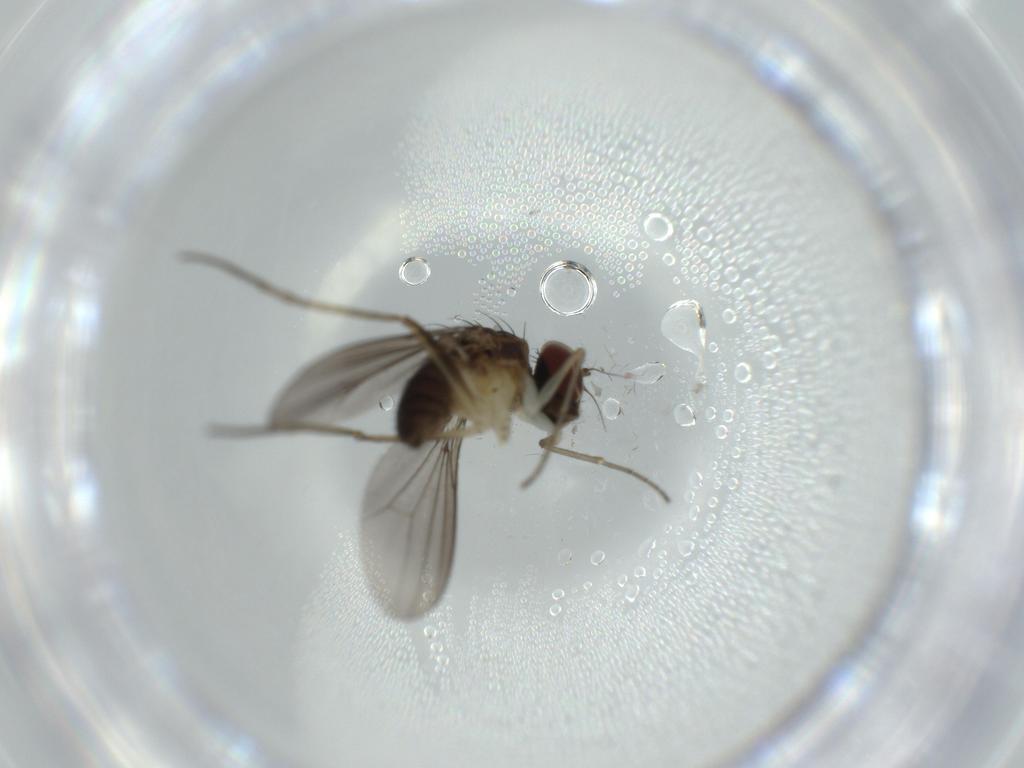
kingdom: Animalia
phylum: Arthropoda
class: Insecta
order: Diptera
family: Dolichopodidae
